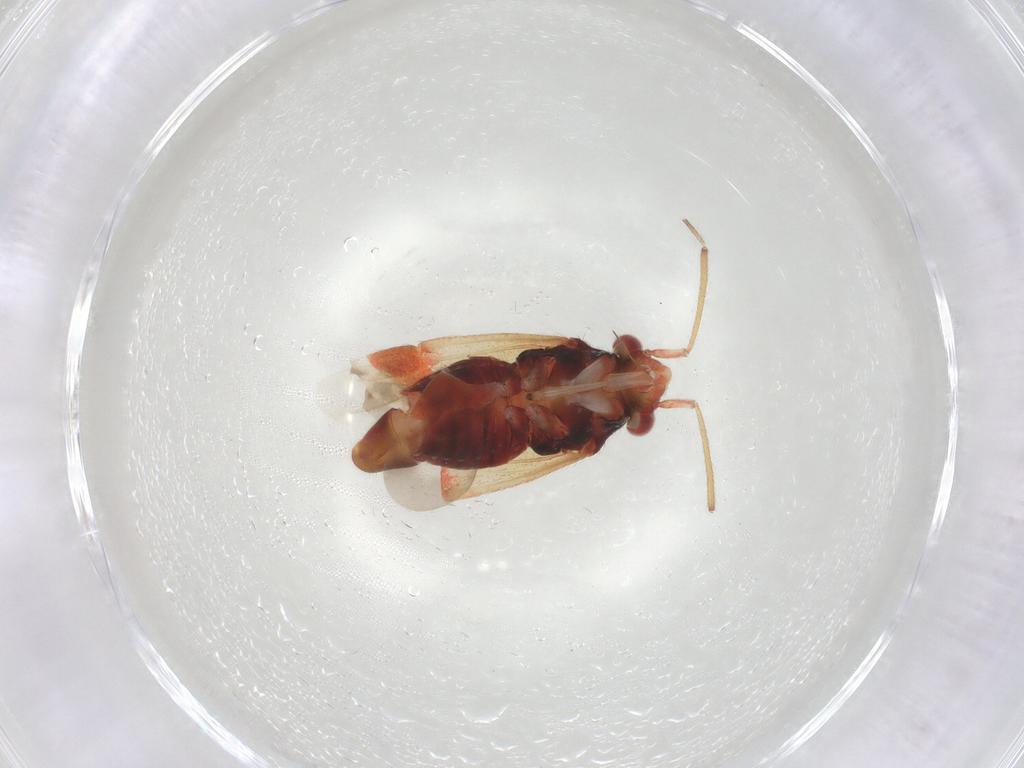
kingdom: Animalia
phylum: Arthropoda
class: Insecta
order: Hemiptera
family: Miridae
